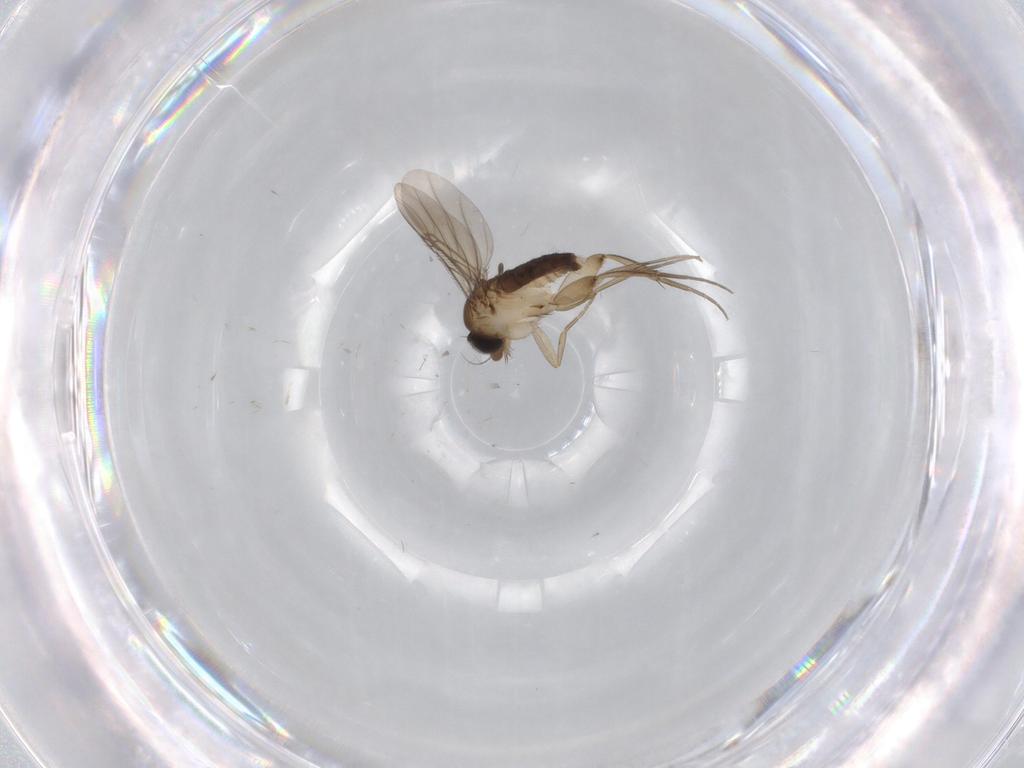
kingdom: Animalia
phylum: Arthropoda
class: Insecta
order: Diptera
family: Phoridae
